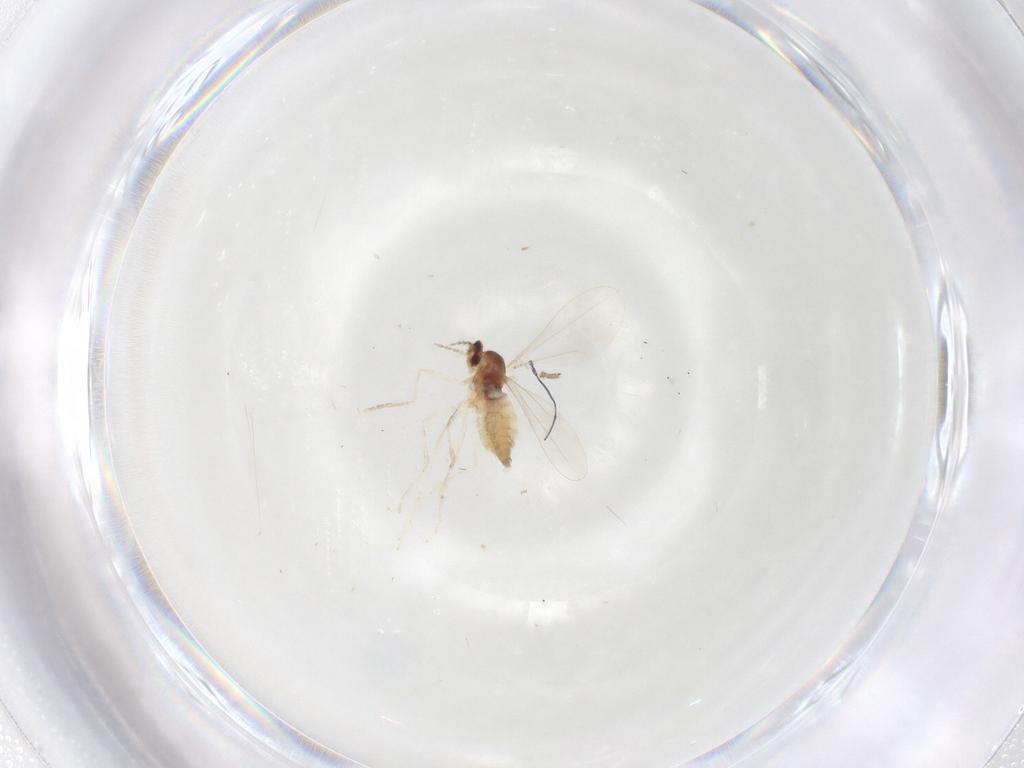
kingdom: Animalia
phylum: Arthropoda
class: Insecta
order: Diptera
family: Cecidomyiidae
